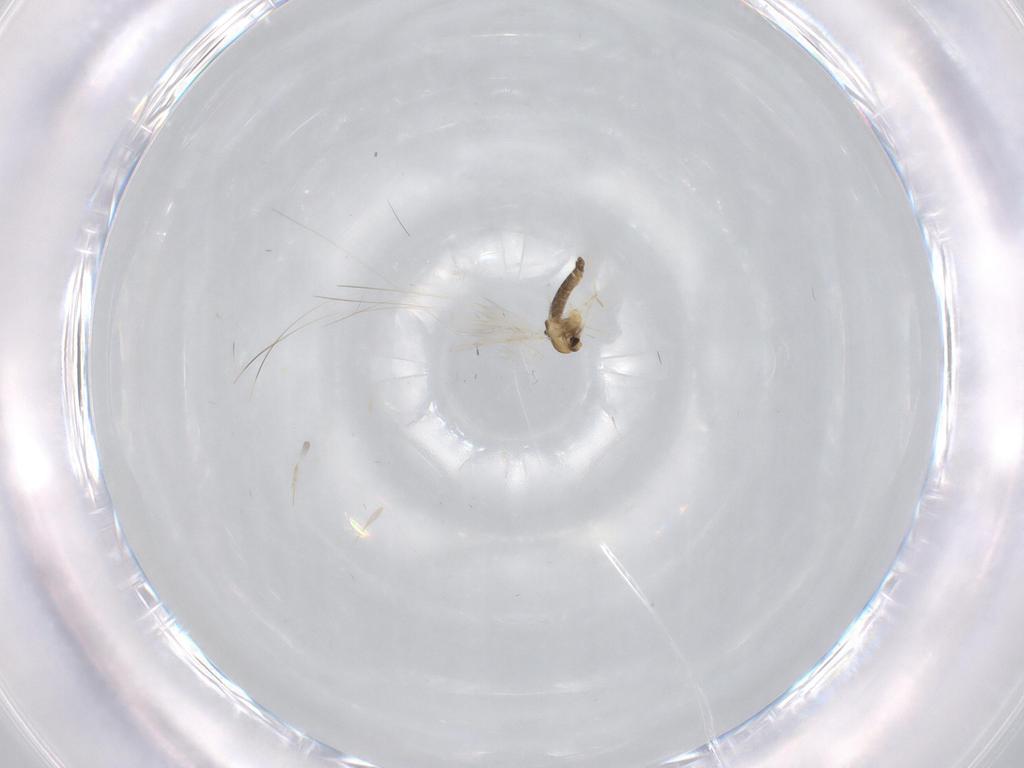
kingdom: Animalia
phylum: Arthropoda
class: Insecta
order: Diptera
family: Chironomidae
